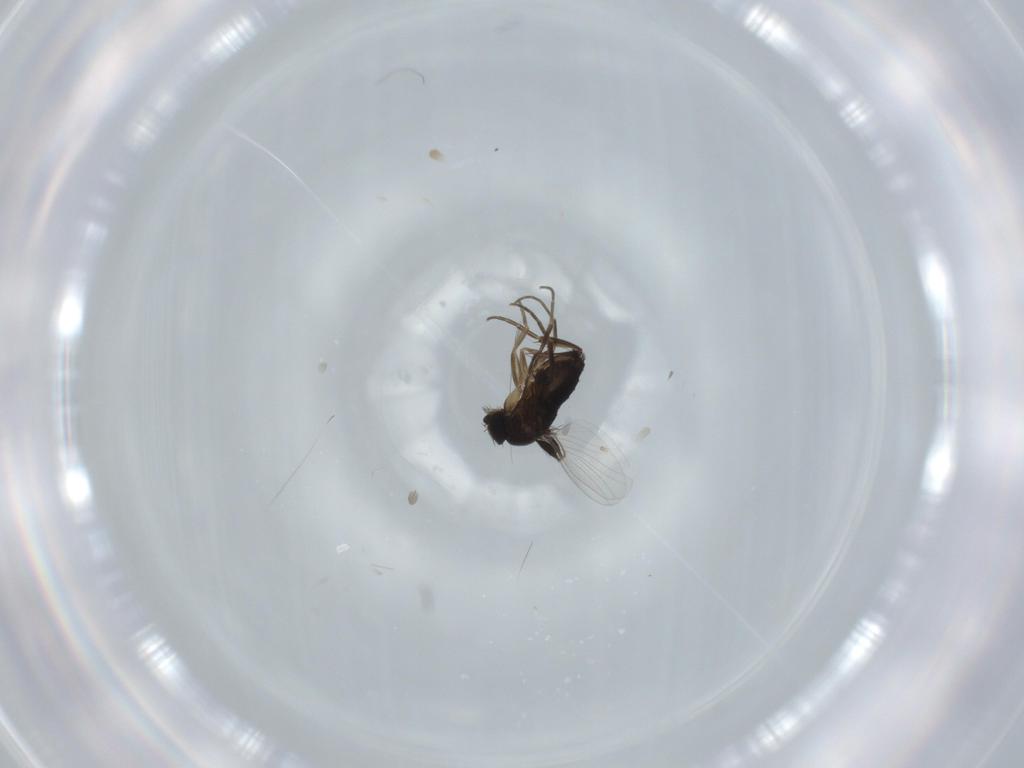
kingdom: Animalia
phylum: Arthropoda
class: Insecta
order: Diptera
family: Phoridae
